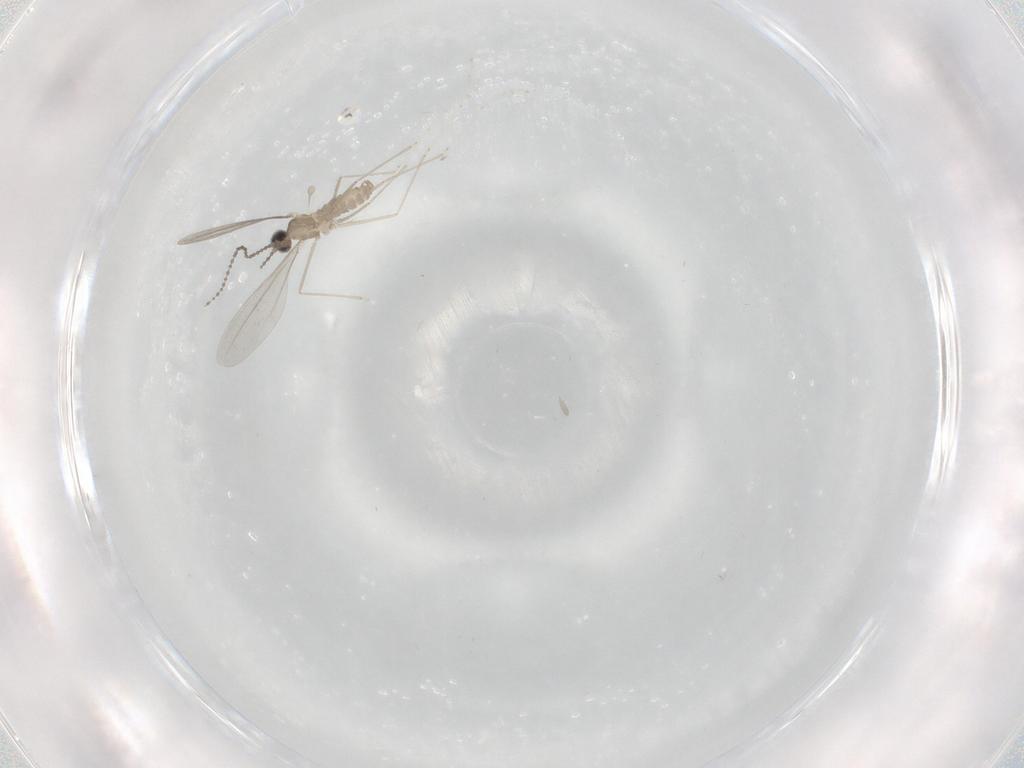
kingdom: Animalia
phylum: Arthropoda
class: Insecta
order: Diptera
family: Cecidomyiidae
